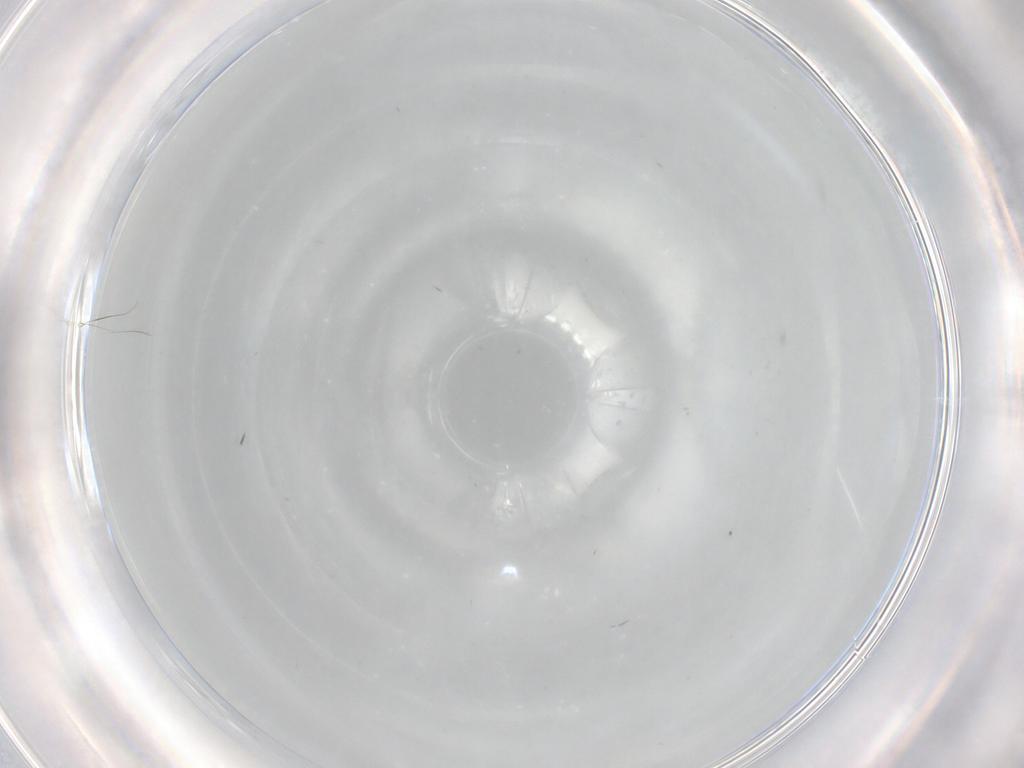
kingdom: Animalia
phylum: Arthropoda
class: Insecta
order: Diptera
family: Cecidomyiidae
